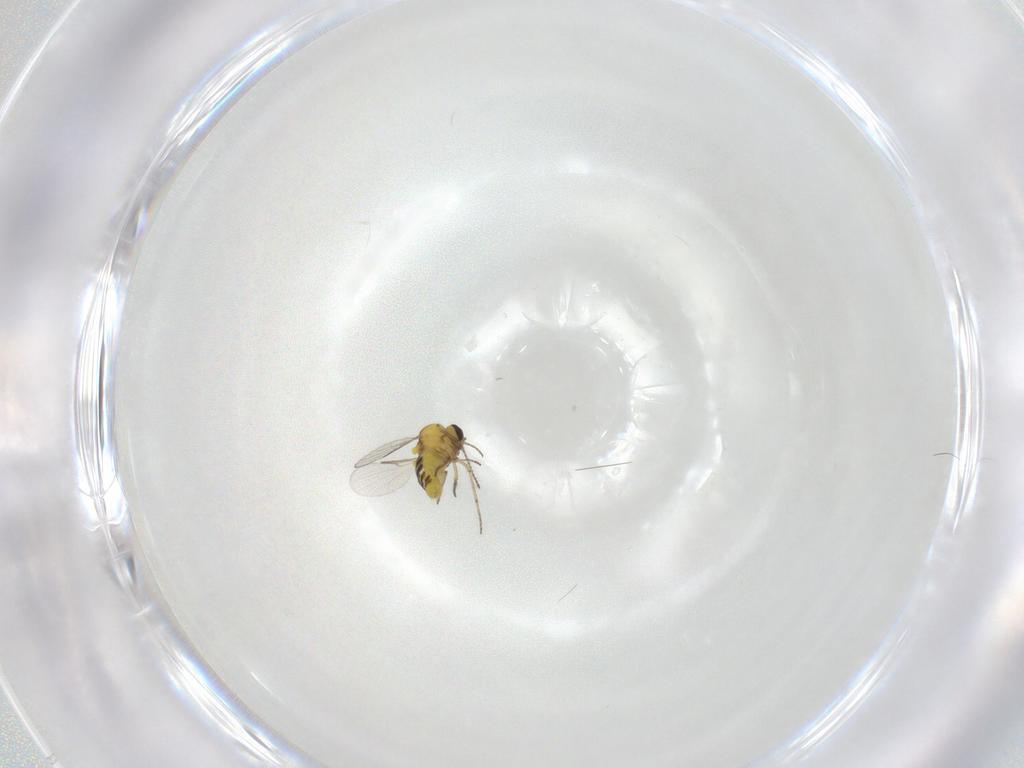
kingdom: Animalia
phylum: Arthropoda
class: Insecta
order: Diptera
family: Ceratopogonidae
